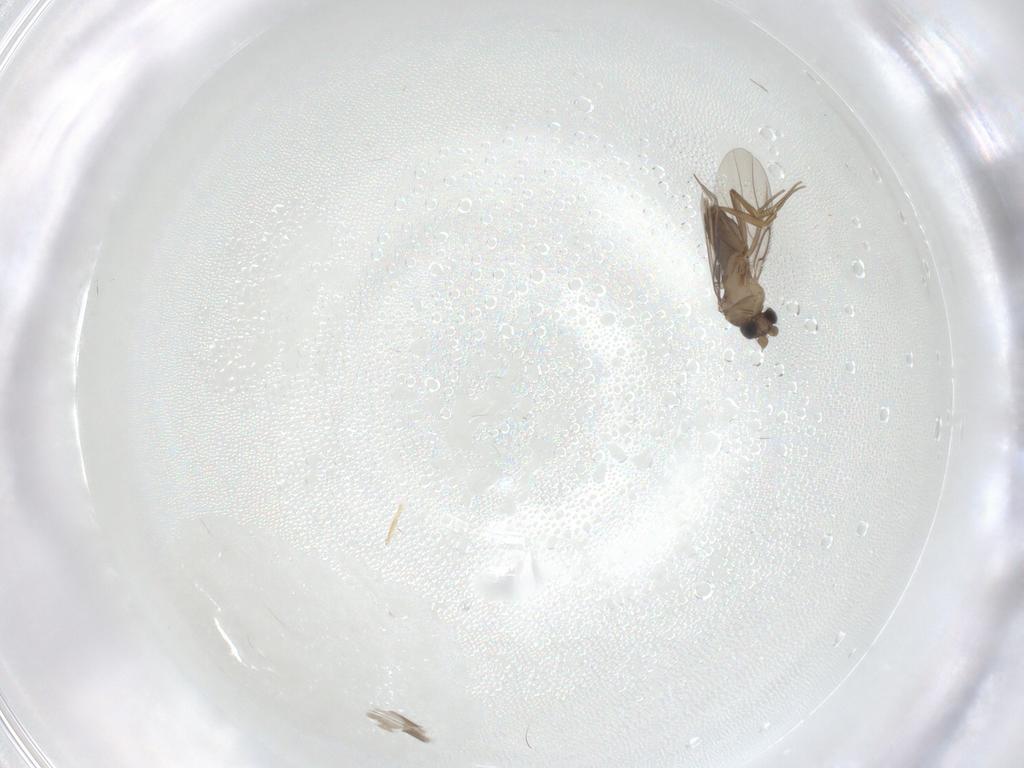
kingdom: Animalia
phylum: Arthropoda
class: Insecta
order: Diptera
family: Phoridae
